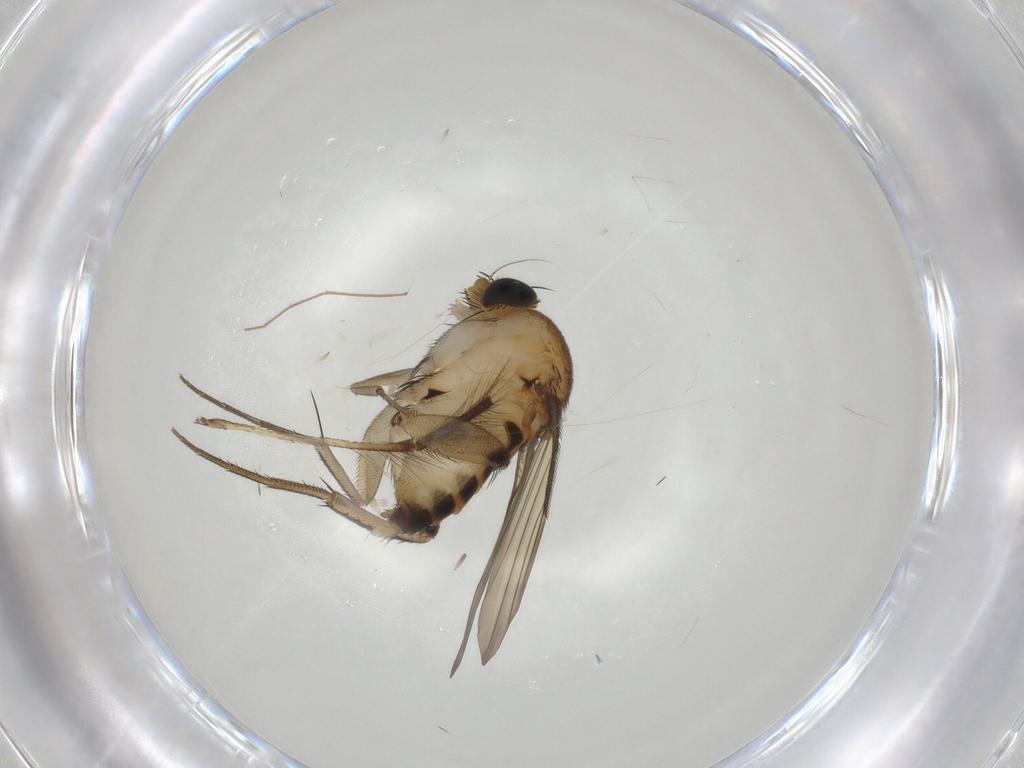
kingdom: Animalia
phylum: Arthropoda
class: Insecta
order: Diptera
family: Phoridae
